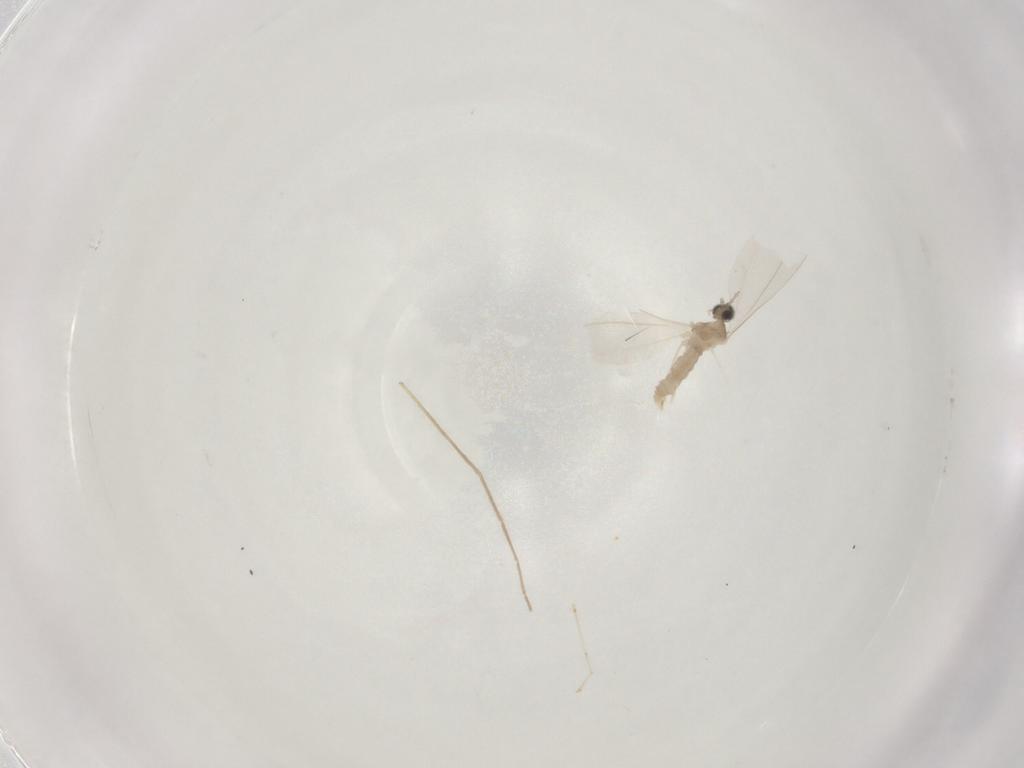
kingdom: Animalia
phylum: Arthropoda
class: Insecta
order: Diptera
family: Cecidomyiidae
